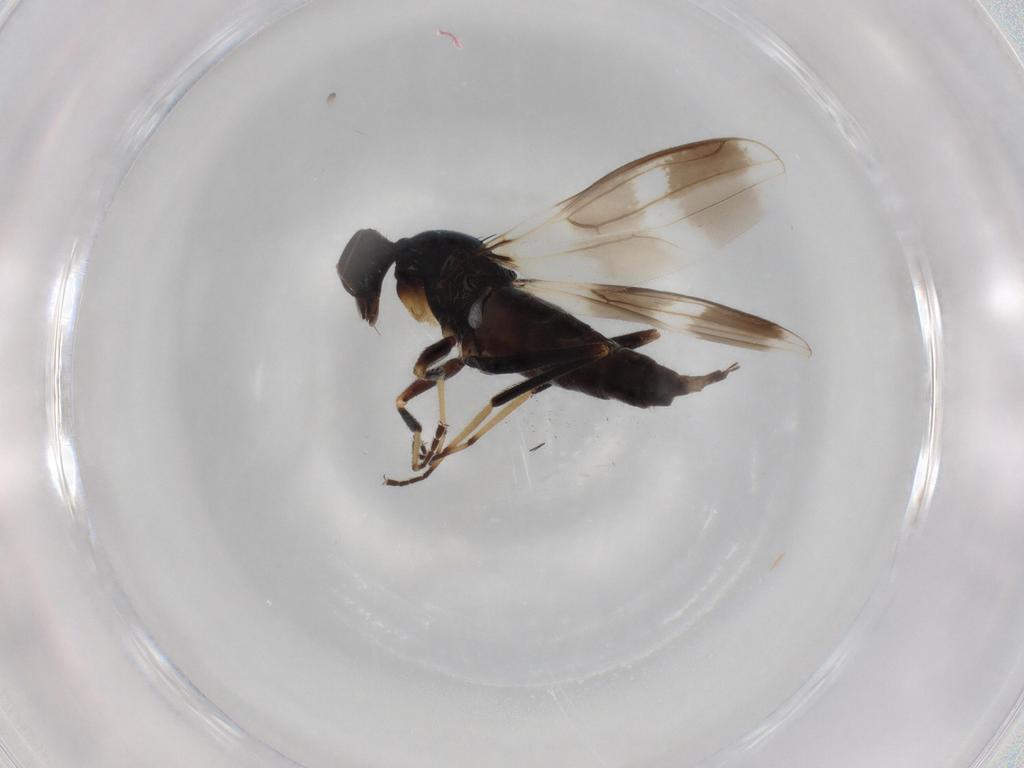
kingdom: Animalia
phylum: Arthropoda
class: Insecta
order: Diptera
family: Hybotidae
